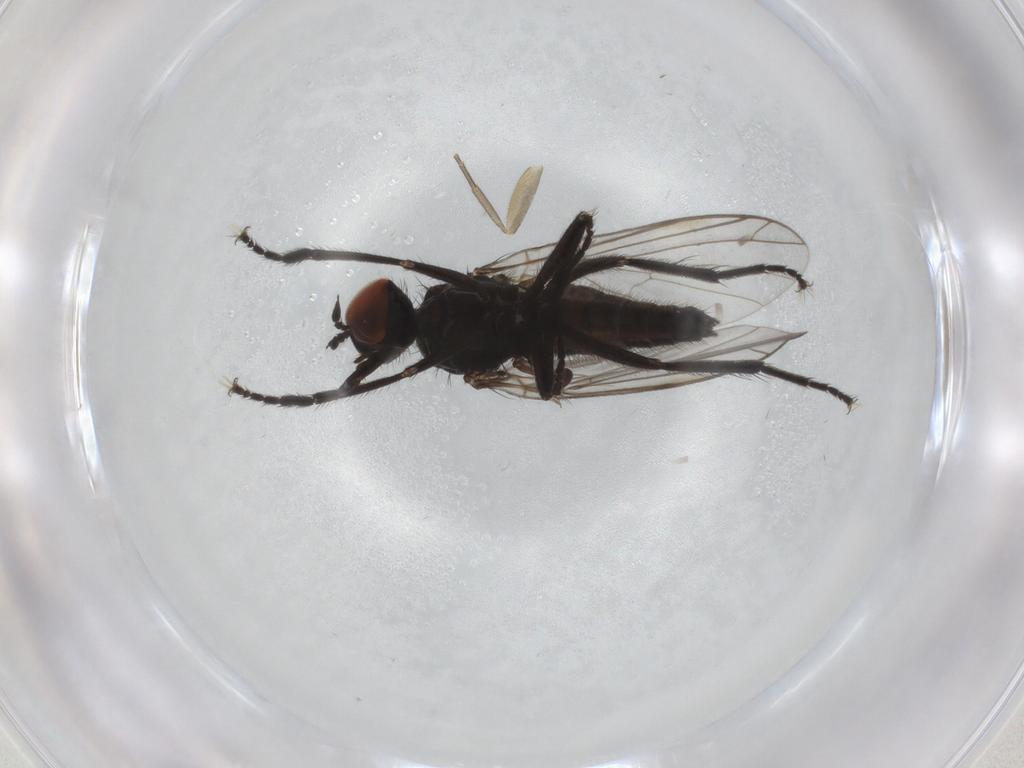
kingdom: Animalia
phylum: Arthropoda
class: Insecta
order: Diptera
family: Empididae
